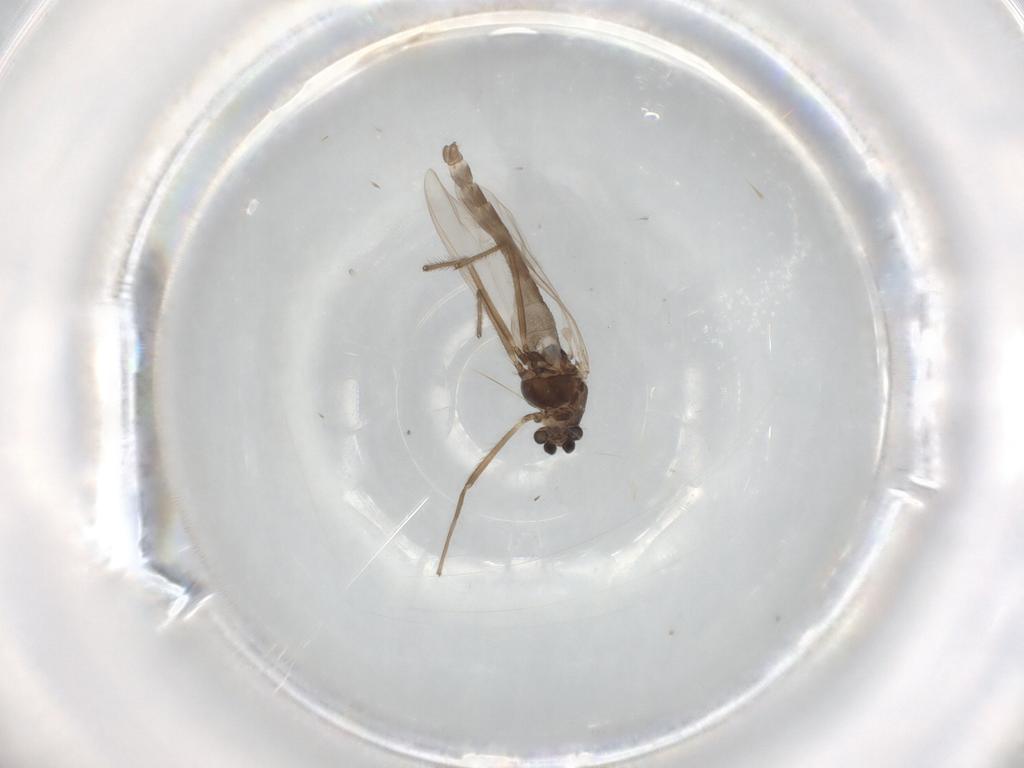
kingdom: Animalia
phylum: Arthropoda
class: Insecta
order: Diptera
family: Chironomidae
